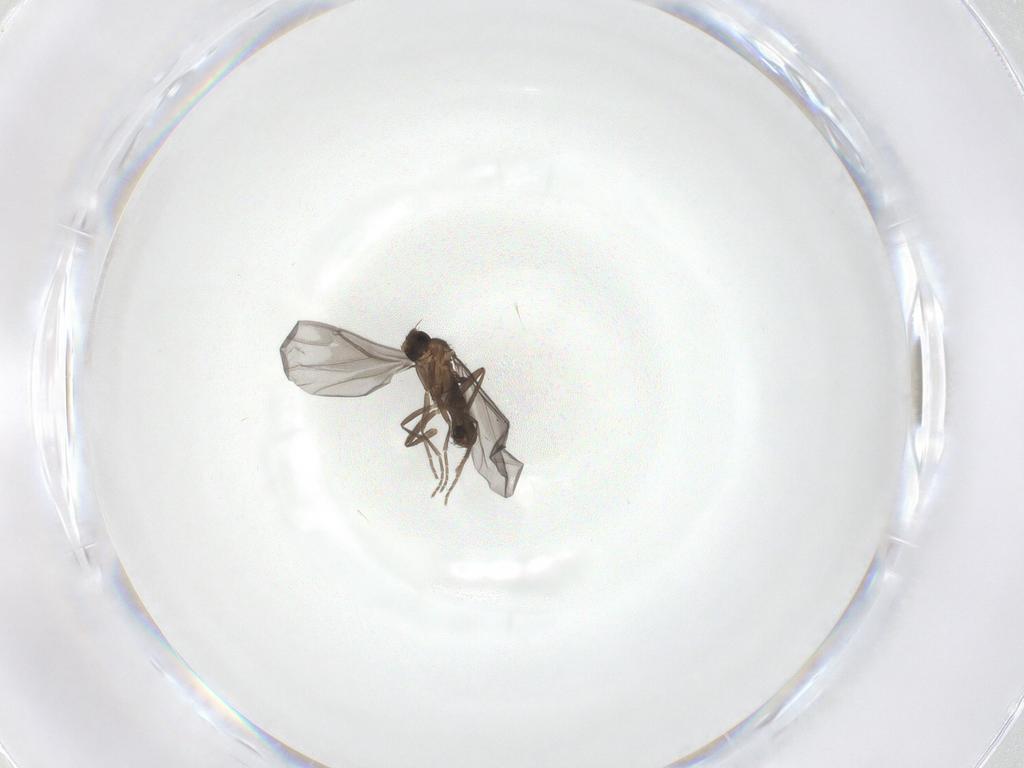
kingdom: Animalia
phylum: Arthropoda
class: Insecta
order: Diptera
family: Phoridae
